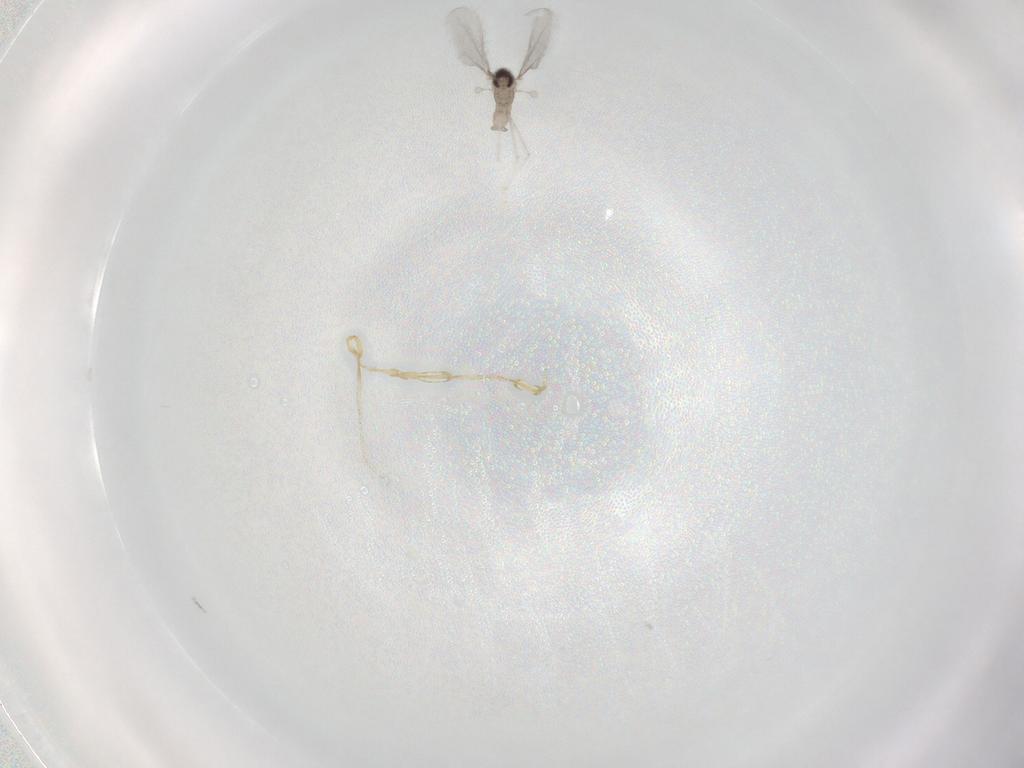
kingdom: Animalia
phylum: Arthropoda
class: Insecta
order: Diptera
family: Cecidomyiidae
